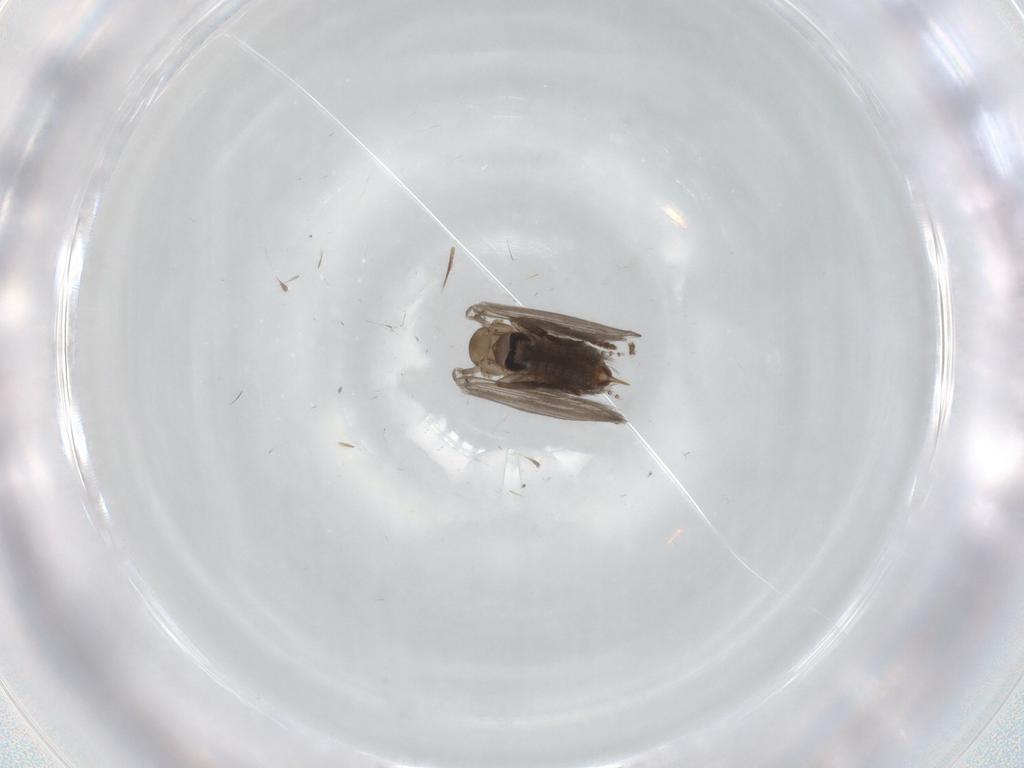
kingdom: Animalia
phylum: Arthropoda
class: Insecta
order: Diptera
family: Psychodidae
